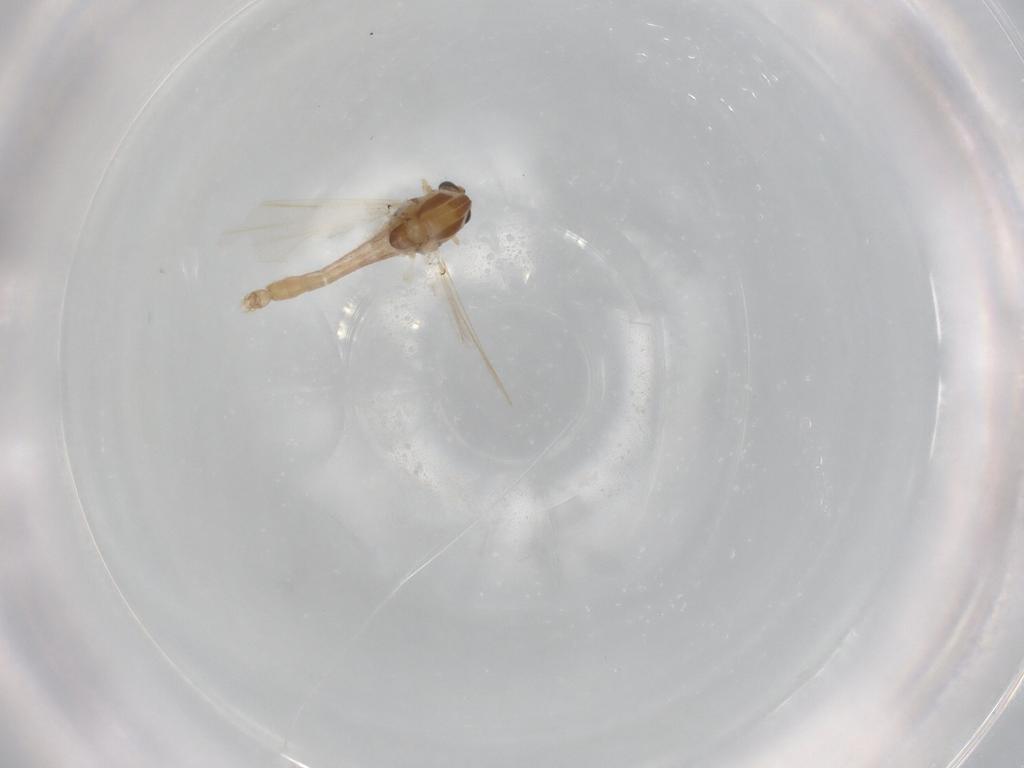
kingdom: Animalia
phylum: Arthropoda
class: Insecta
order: Diptera
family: Chironomidae
